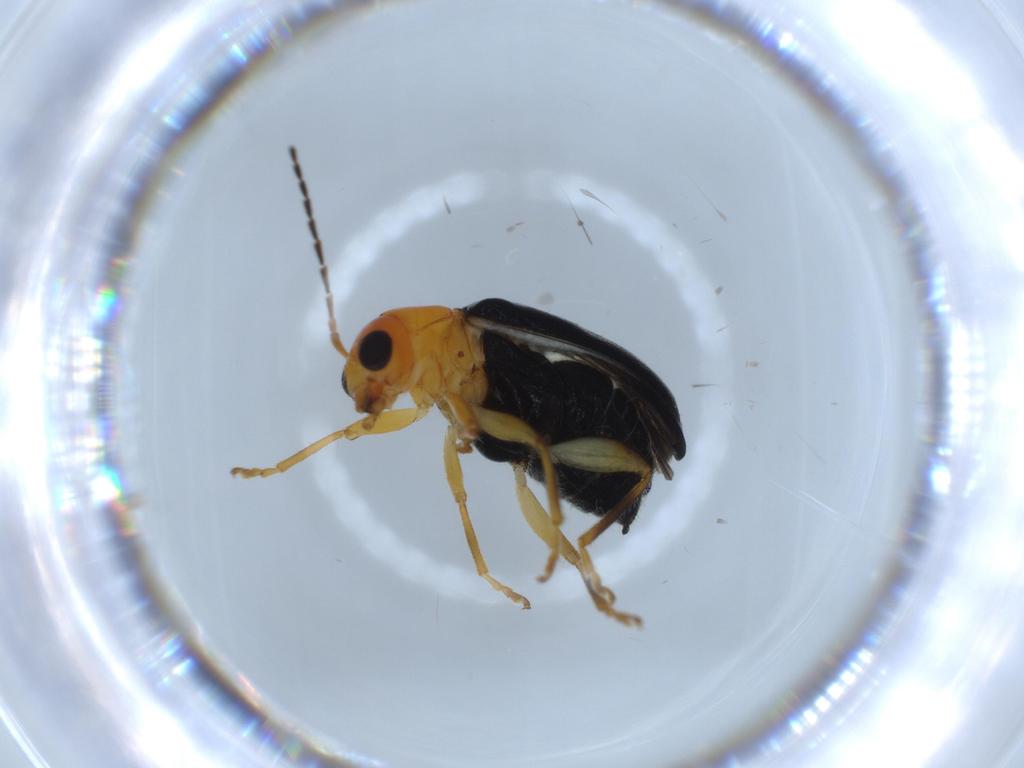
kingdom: Animalia
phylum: Arthropoda
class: Insecta
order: Coleoptera
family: Chrysomelidae
